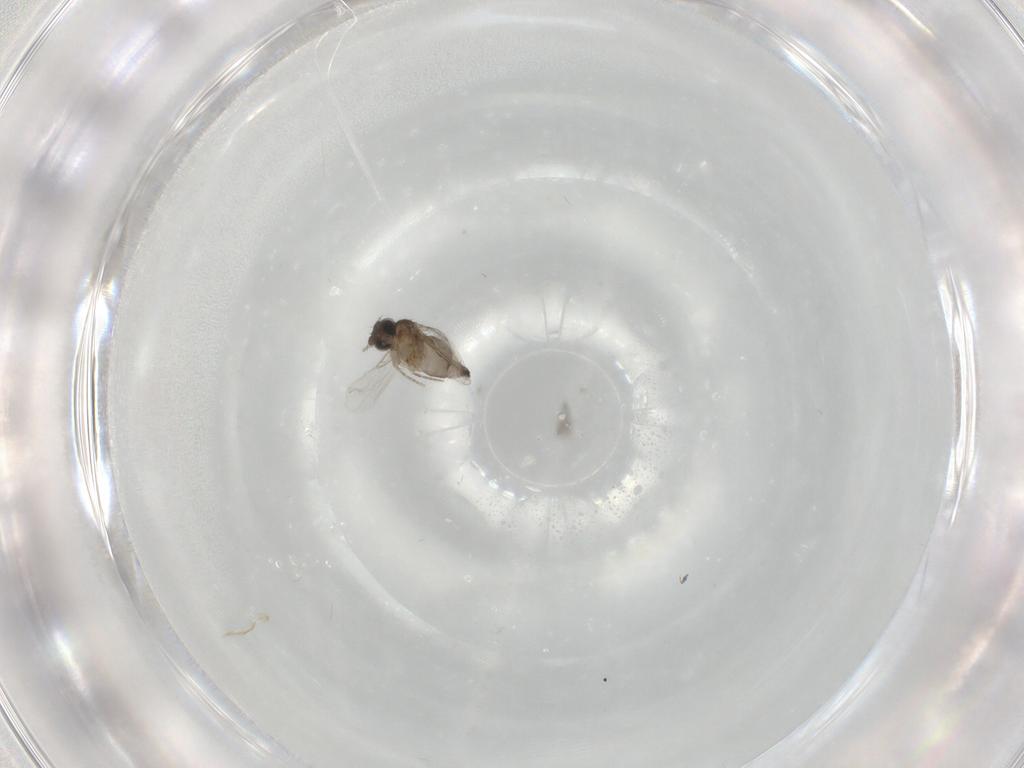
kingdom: Animalia
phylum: Arthropoda
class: Insecta
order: Diptera
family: Phoridae
